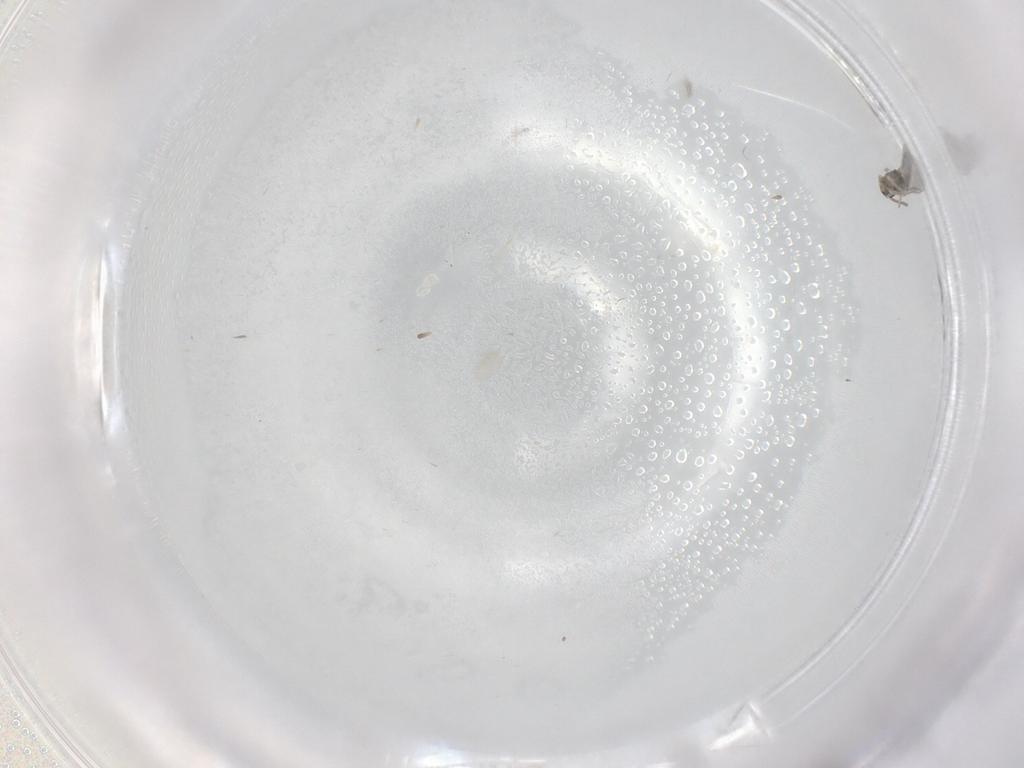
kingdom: Animalia
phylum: Arthropoda
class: Insecta
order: Diptera
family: Cecidomyiidae
